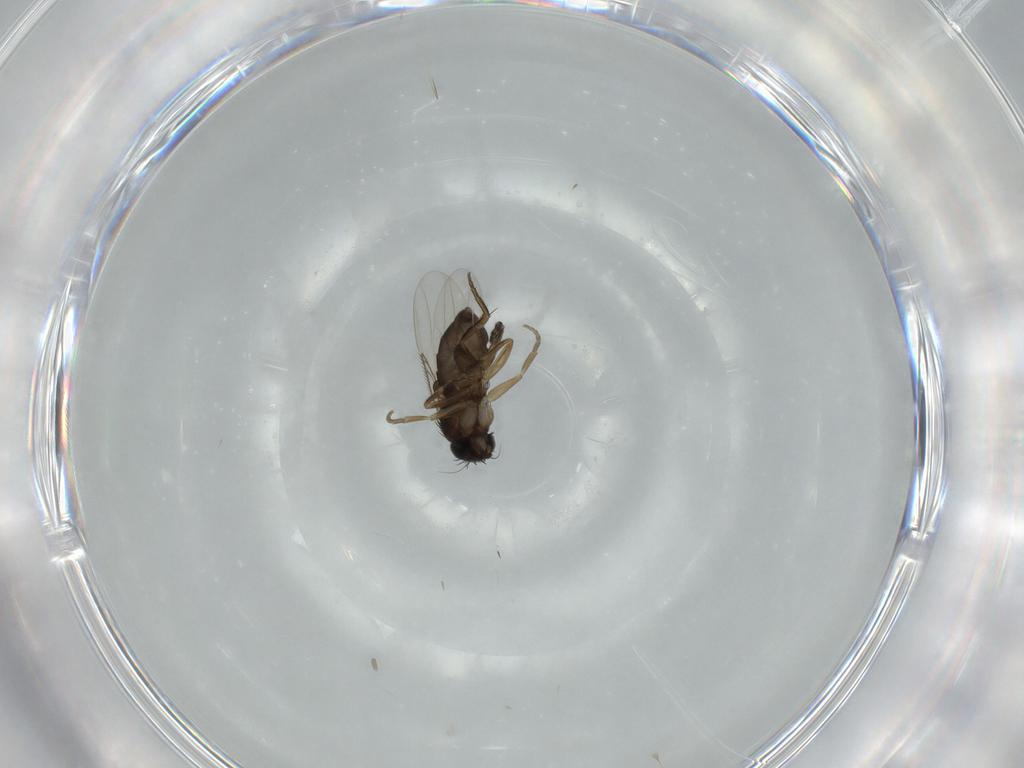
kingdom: Animalia
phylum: Arthropoda
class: Insecta
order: Diptera
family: Phoridae
